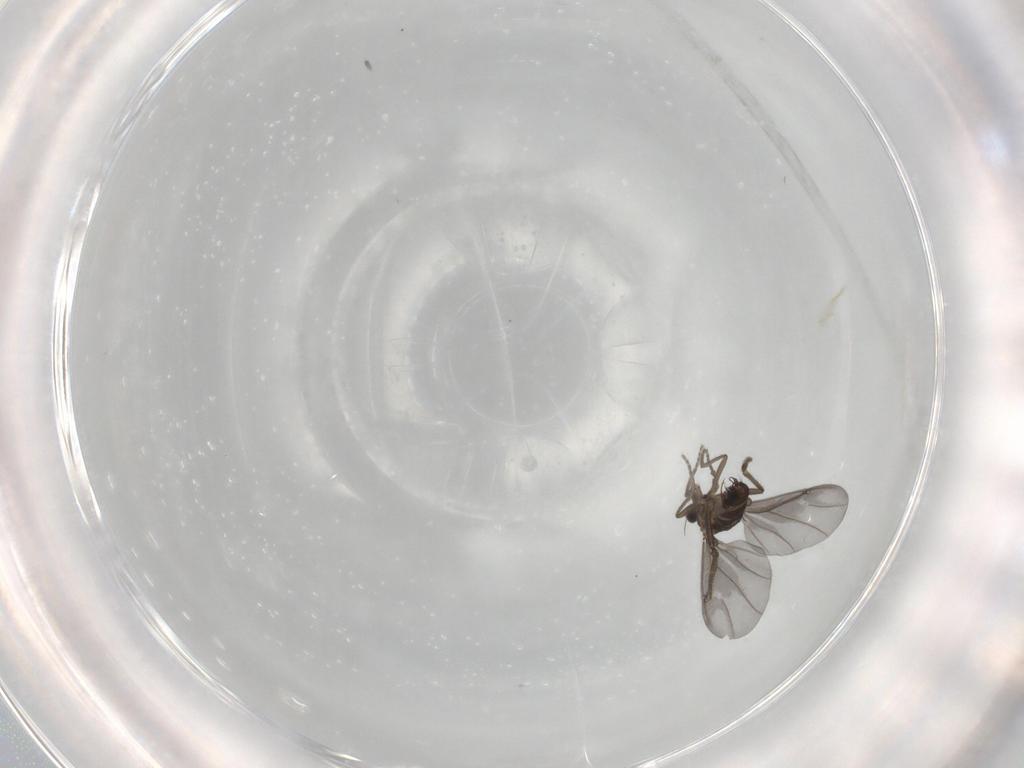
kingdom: Animalia
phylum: Arthropoda
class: Insecta
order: Diptera
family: Phoridae
